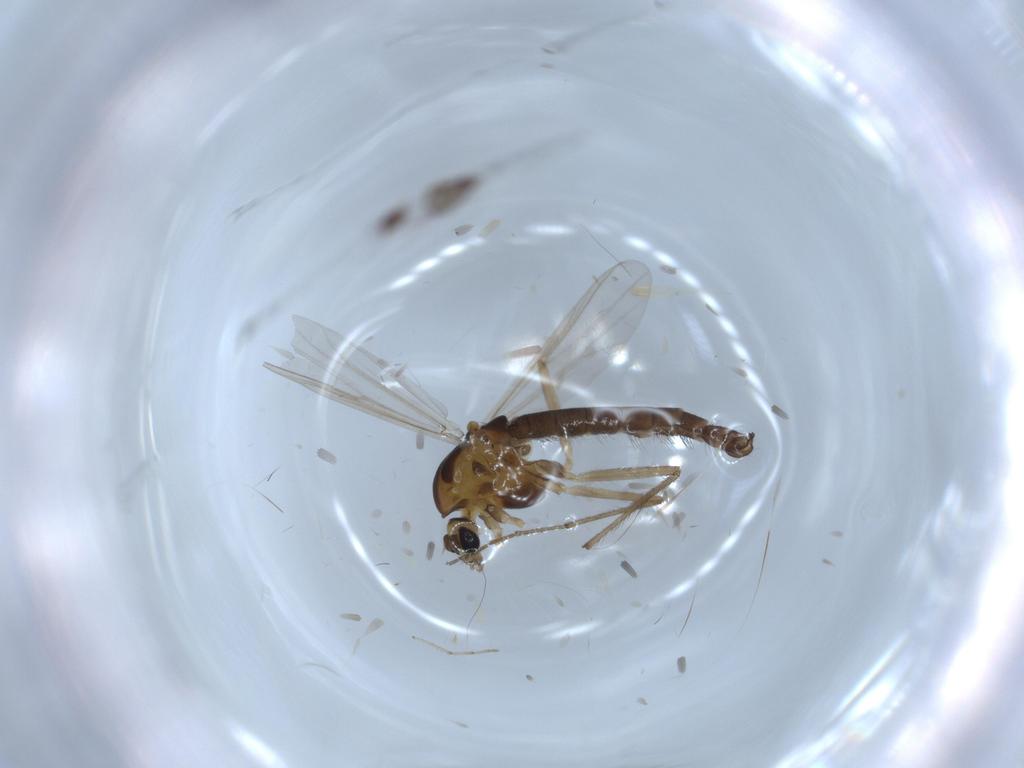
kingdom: Animalia
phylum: Arthropoda
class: Insecta
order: Diptera
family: Chironomidae
